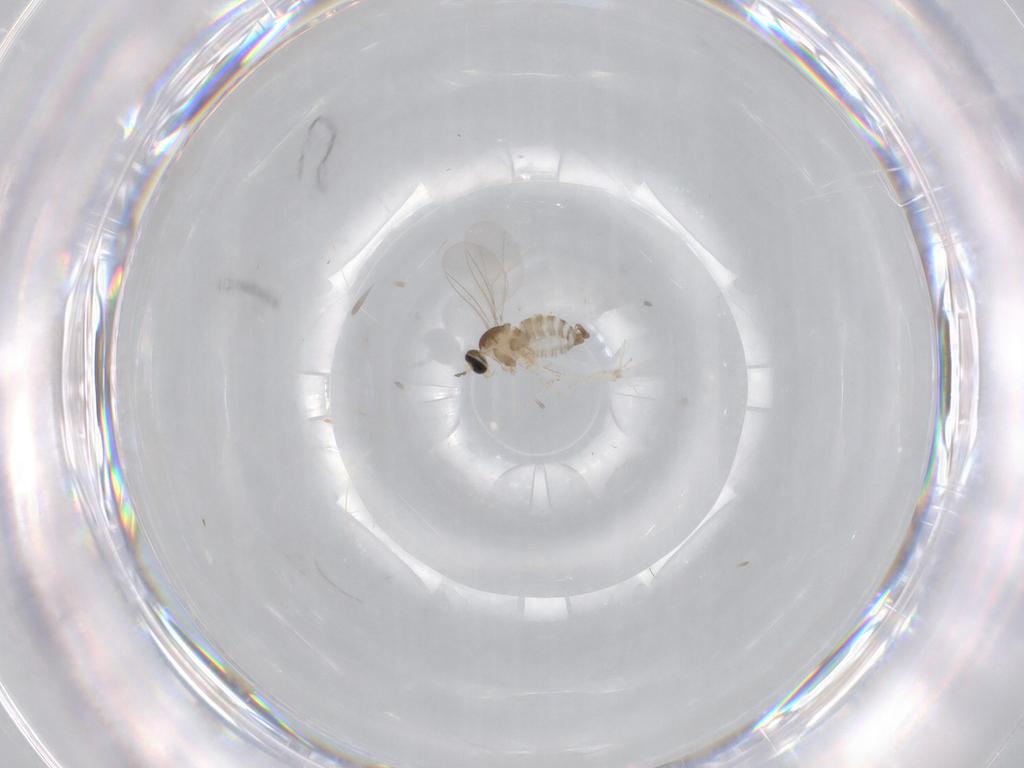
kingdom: Animalia
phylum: Arthropoda
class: Insecta
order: Diptera
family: Cecidomyiidae
